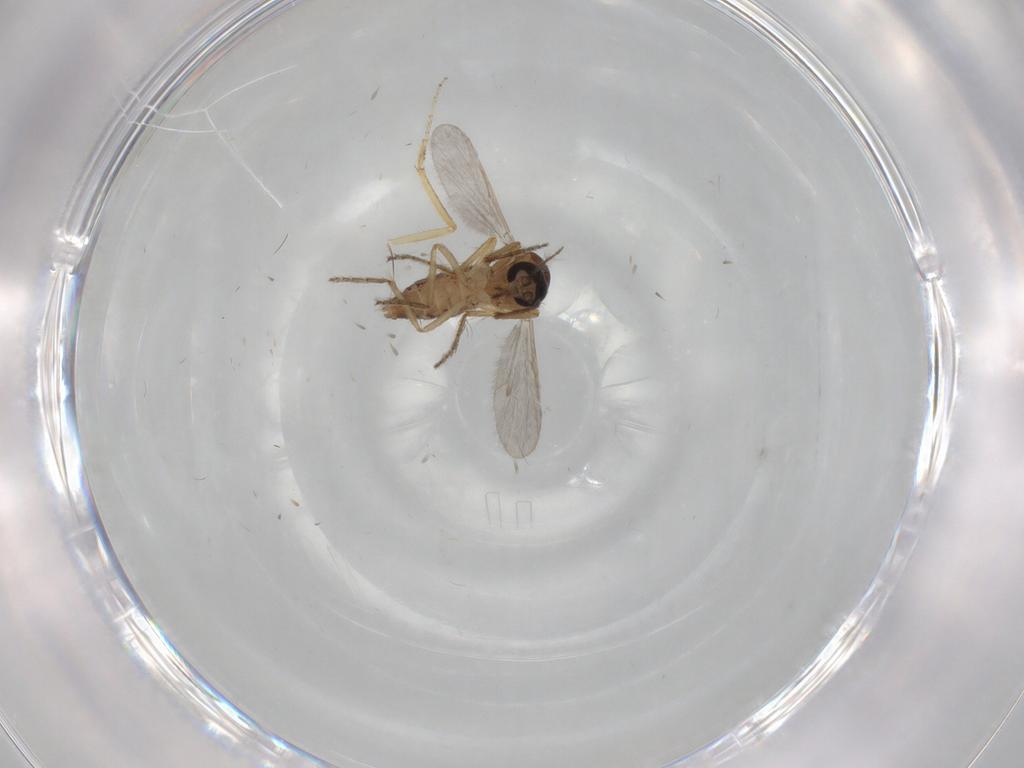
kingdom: Animalia
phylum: Arthropoda
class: Insecta
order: Diptera
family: Ceratopogonidae
